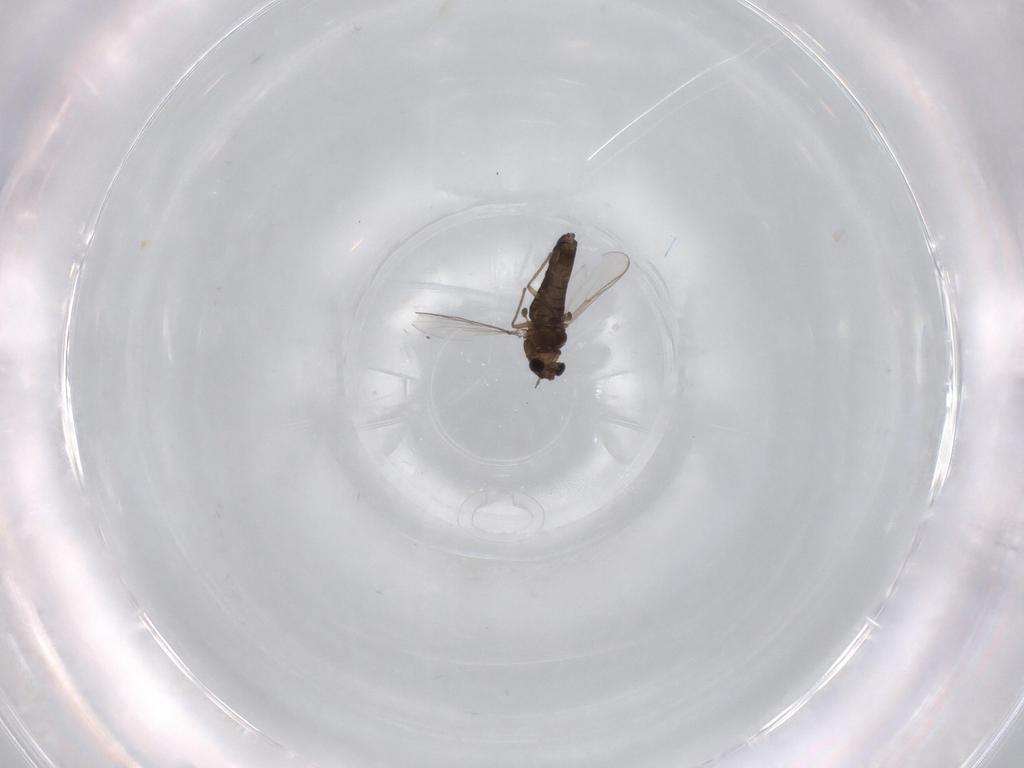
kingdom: Animalia
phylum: Arthropoda
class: Insecta
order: Diptera
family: Chironomidae
